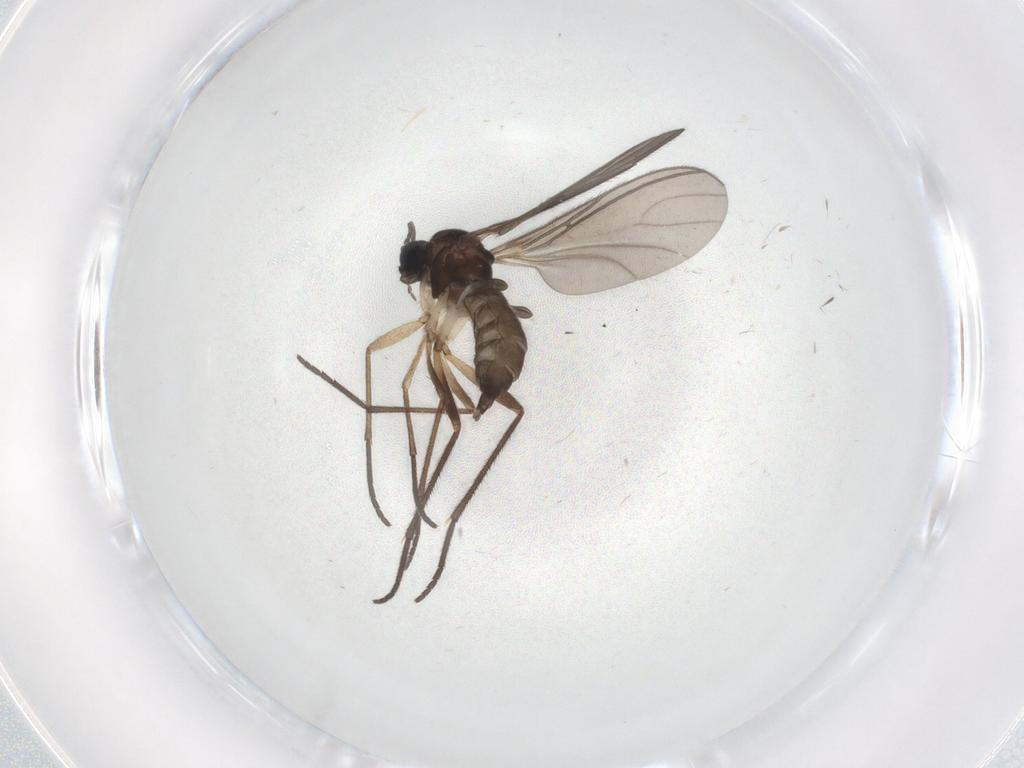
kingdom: Animalia
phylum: Arthropoda
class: Insecta
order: Diptera
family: Sciaridae
